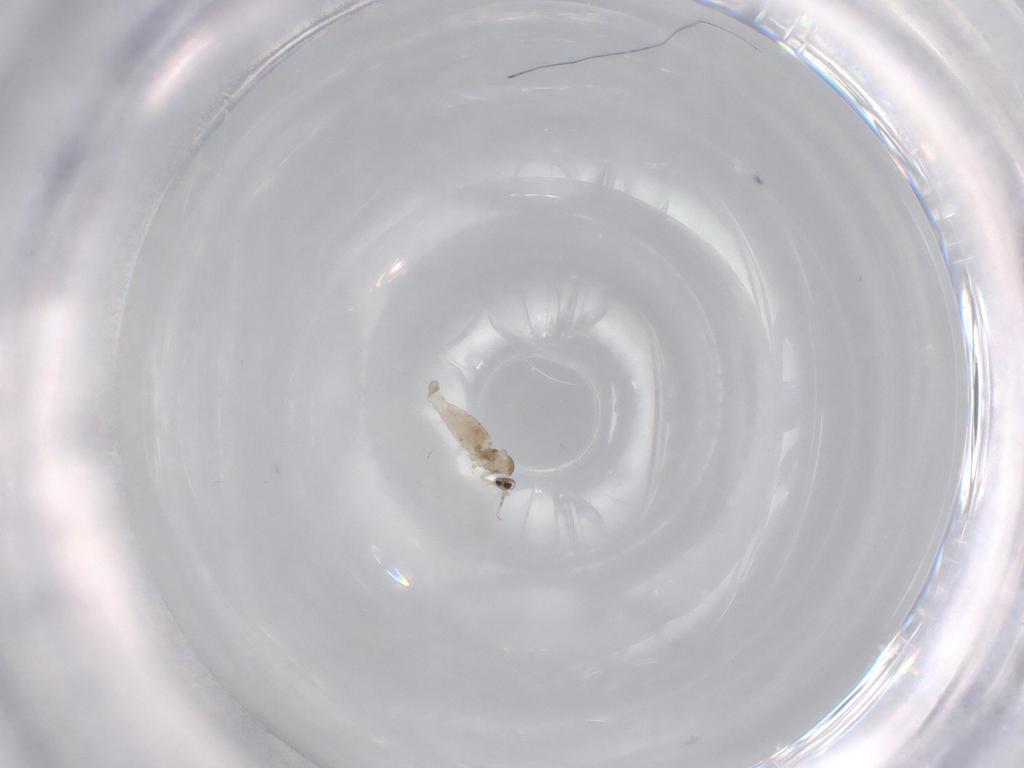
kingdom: Animalia
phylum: Arthropoda
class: Insecta
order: Diptera
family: Cecidomyiidae
